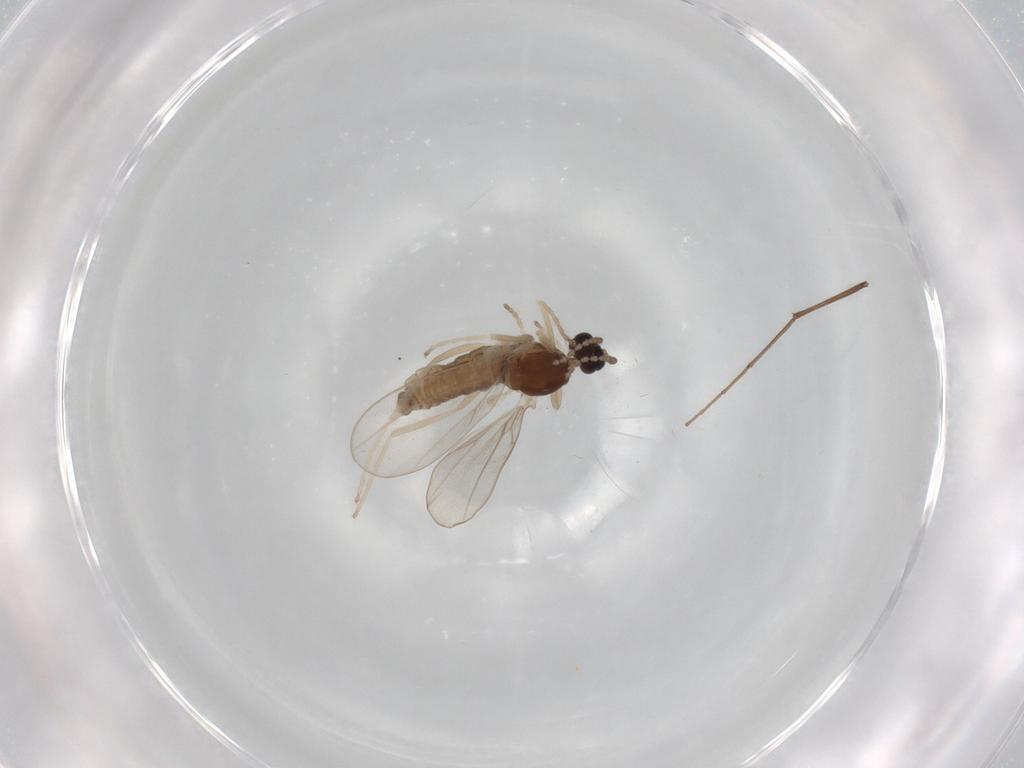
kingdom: Animalia
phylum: Arthropoda
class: Insecta
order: Diptera
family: Cecidomyiidae
